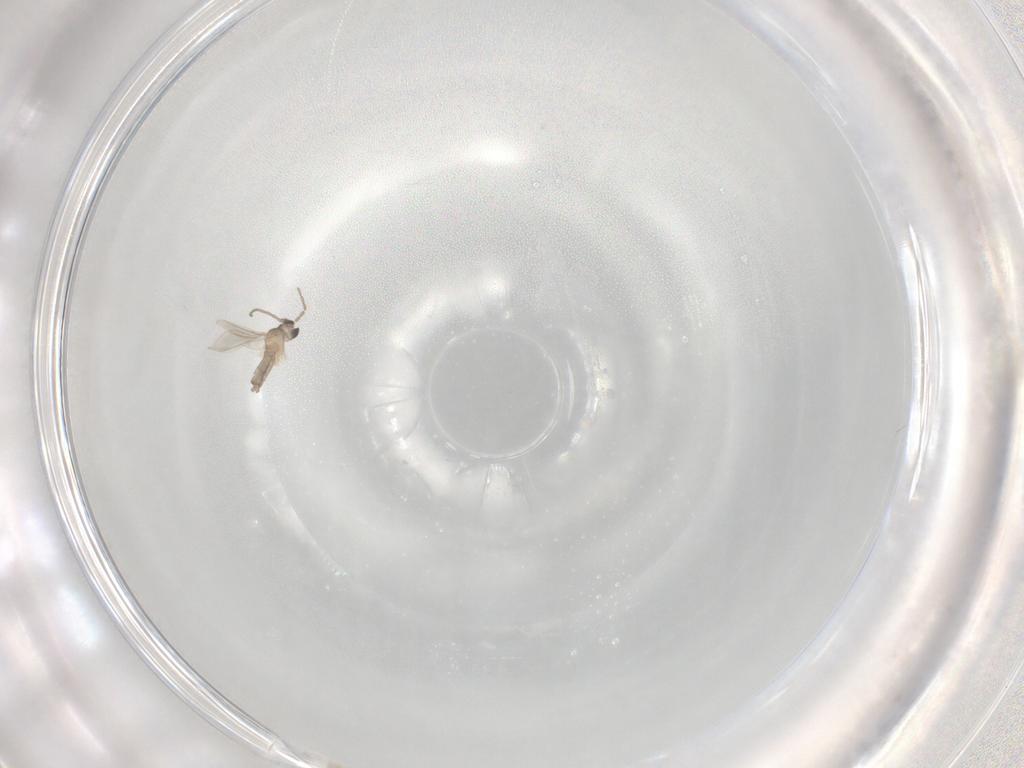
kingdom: Animalia
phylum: Arthropoda
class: Insecta
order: Diptera
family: Cecidomyiidae
